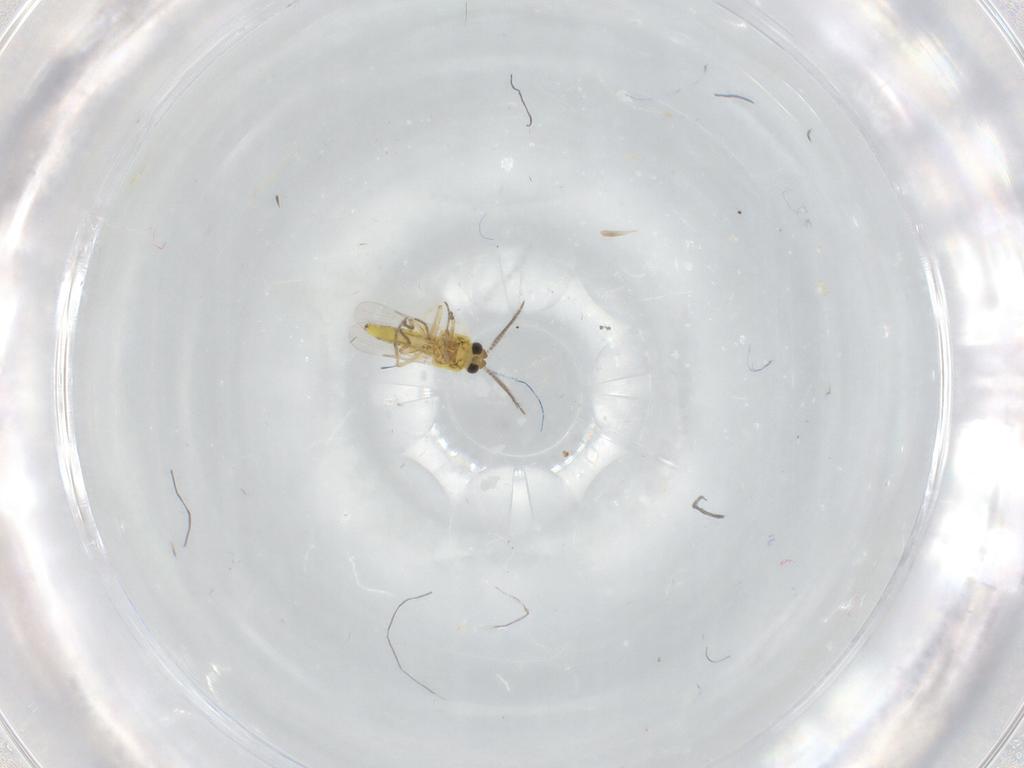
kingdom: Animalia
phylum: Arthropoda
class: Insecta
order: Diptera
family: Ceratopogonidae
